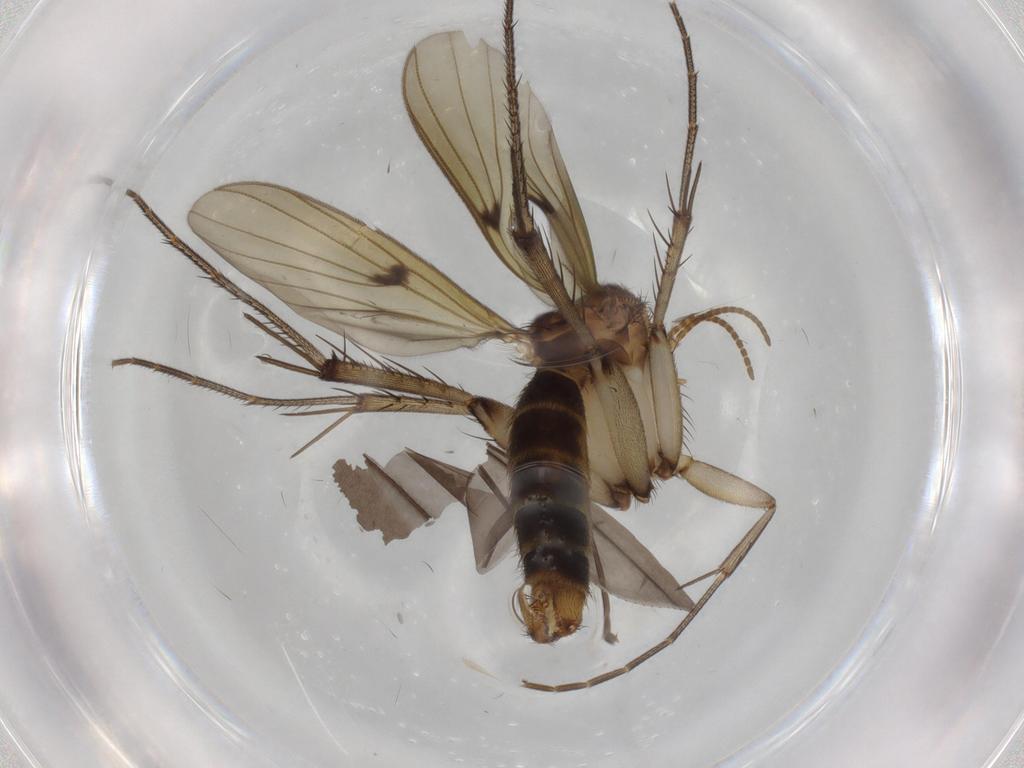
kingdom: Animalia
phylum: Arthropoda
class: Insecta
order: Diptera
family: Mycetophilidae
